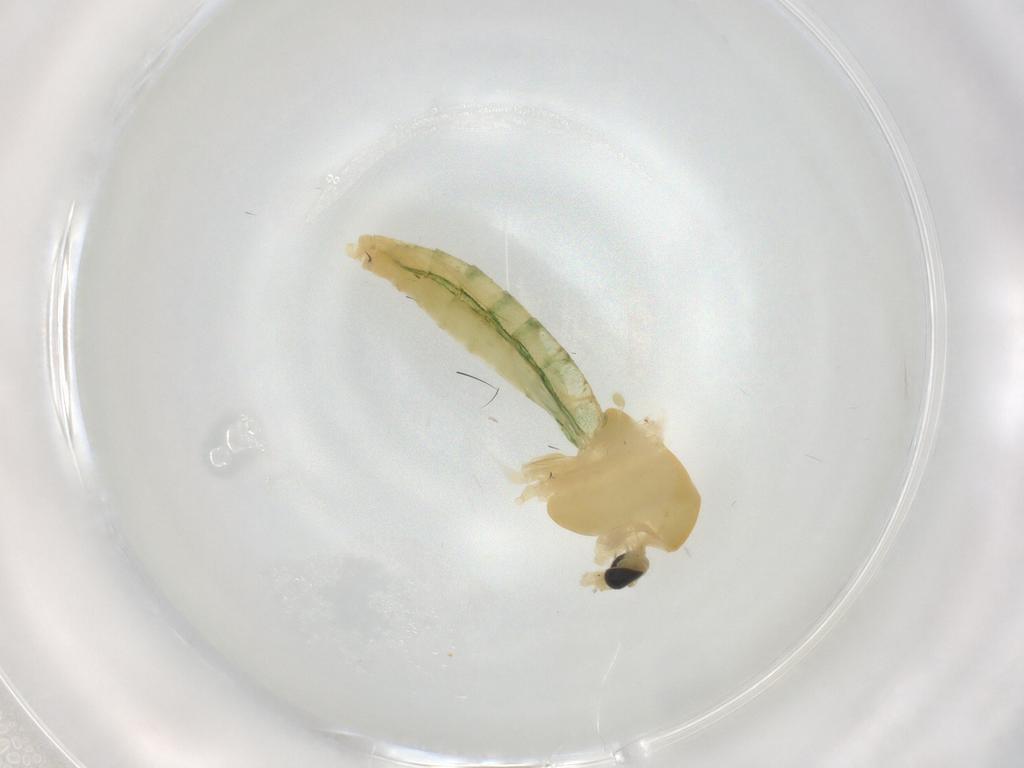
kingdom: Animalia
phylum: Arthropoda
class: Insecta
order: Diptera
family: Chironomidae
